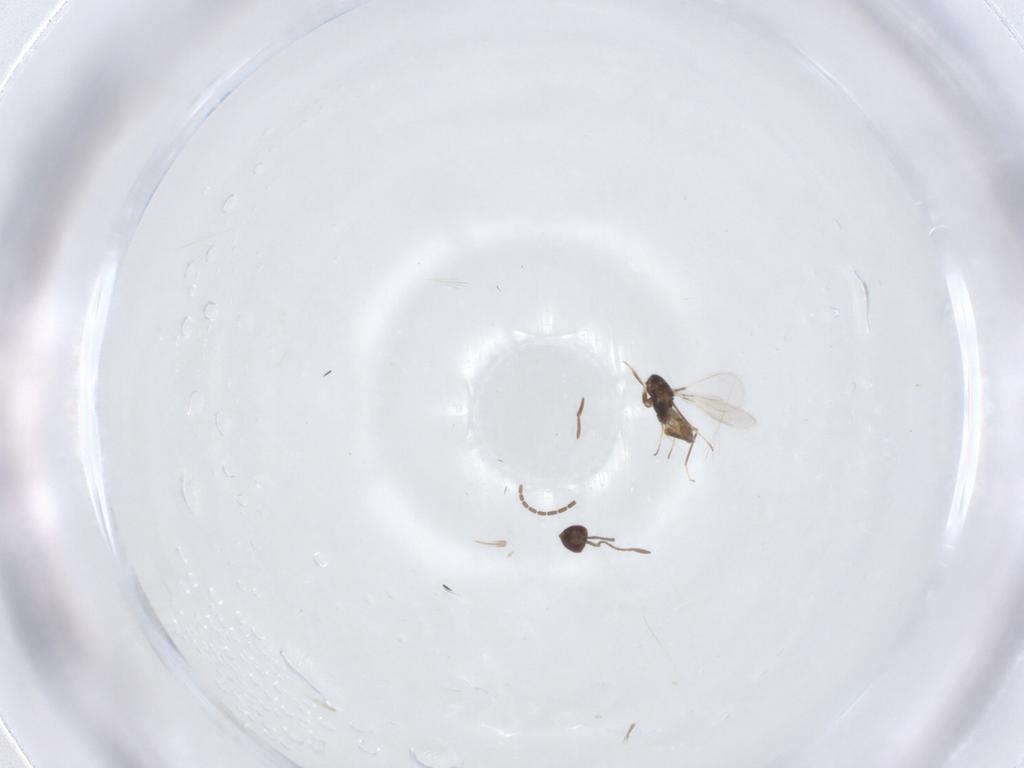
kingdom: Animalia
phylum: Arthropoda
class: Insecta
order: Hymenoptera
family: Mymaridae
